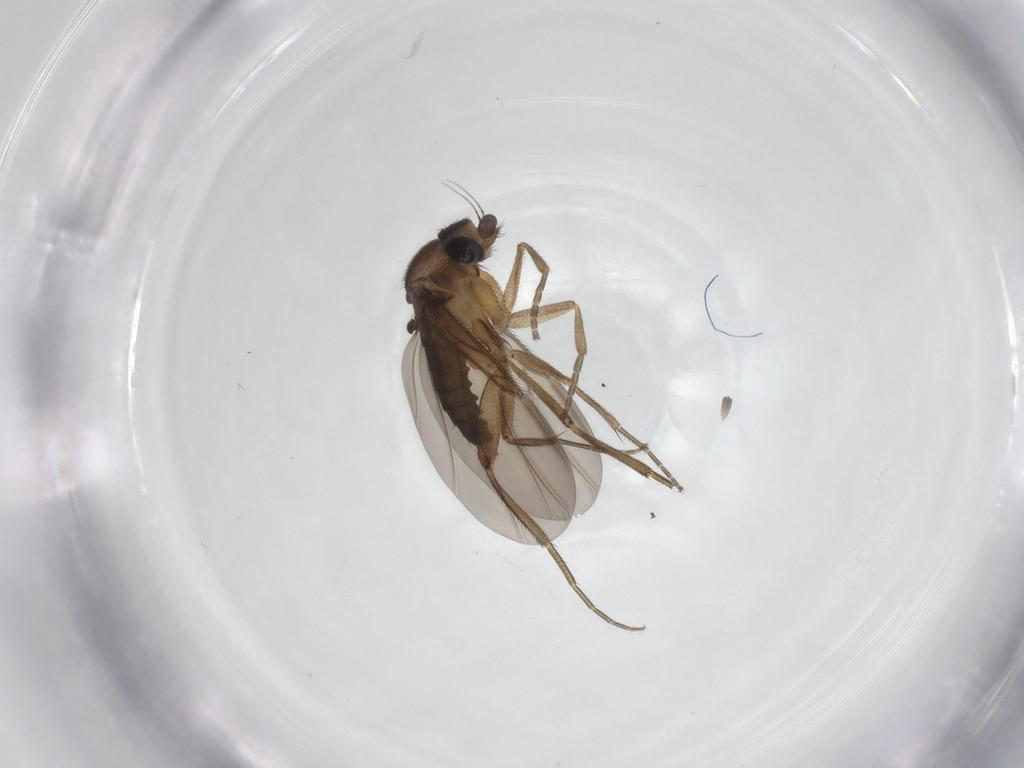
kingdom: Animalia
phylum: Arthropoda
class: Insecta
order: Diptera
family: Phoridae
